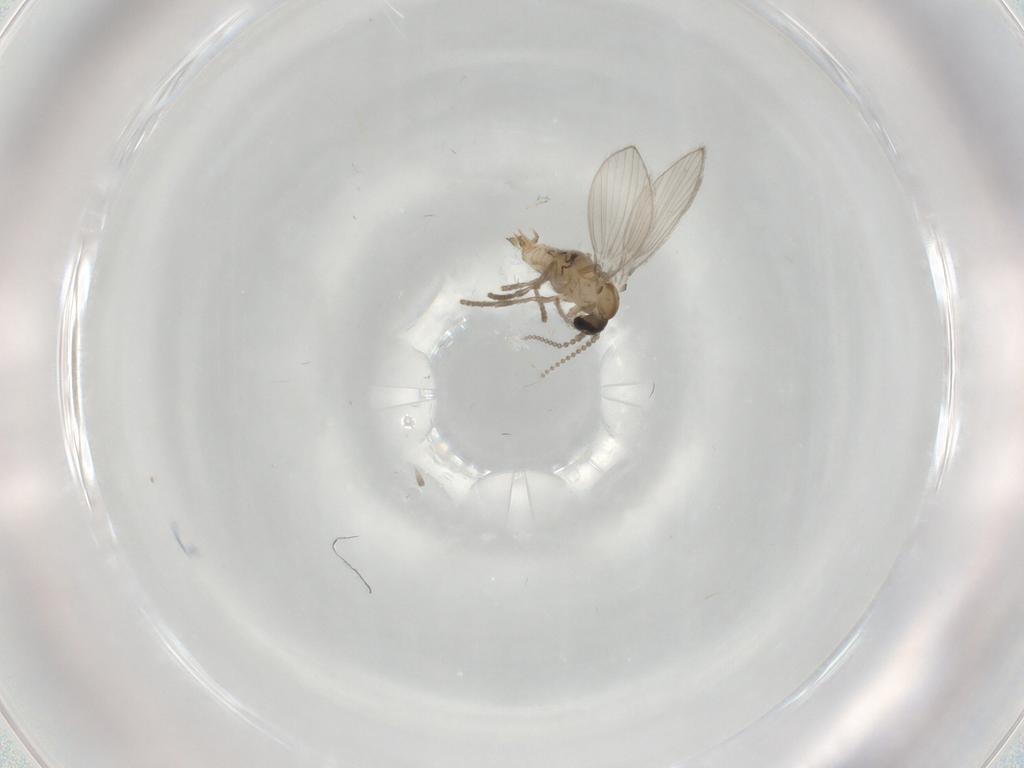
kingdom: Animalia
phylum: Arthropoda
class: Insecta
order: Diptera
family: Psychodidae
